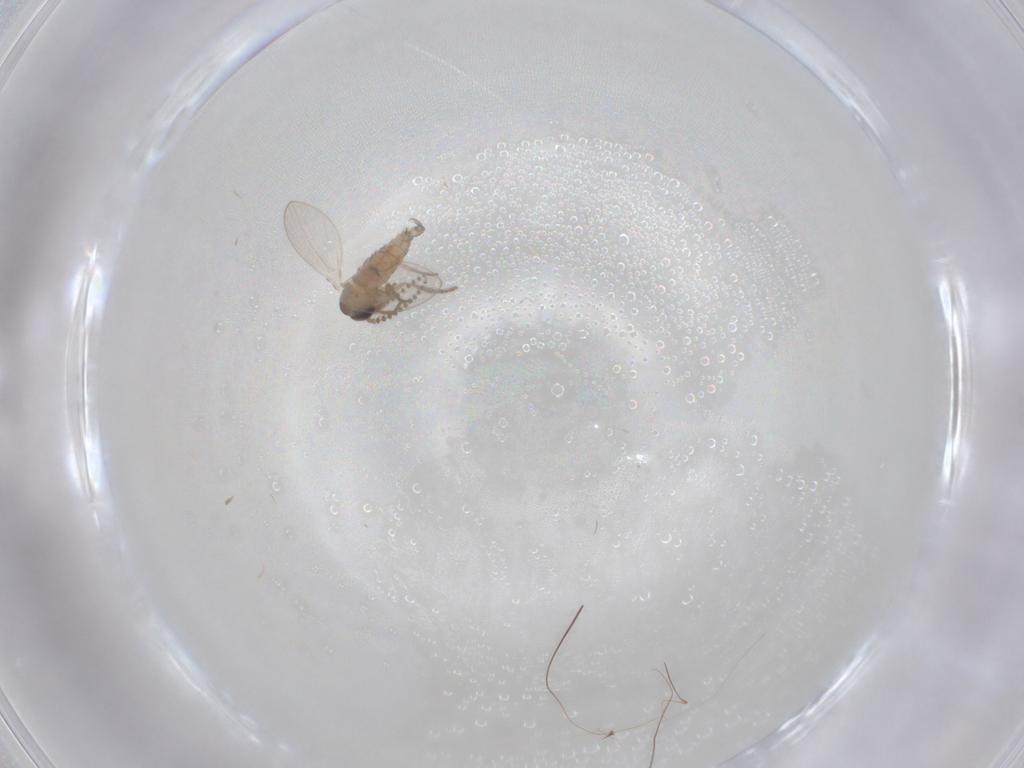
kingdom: Animalia
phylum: Arthropoda
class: Insecta
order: Diptera
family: Psychodidae
